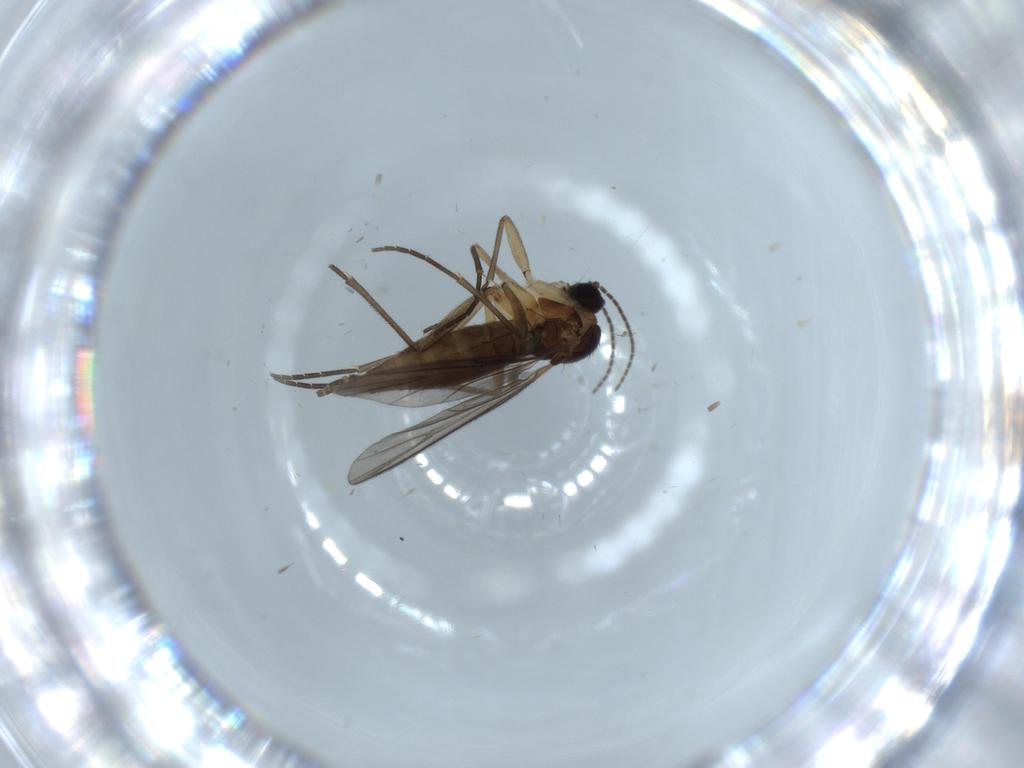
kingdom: Animalia
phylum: Arthropoda
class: Insecta
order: Diptera
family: Sciaridae
